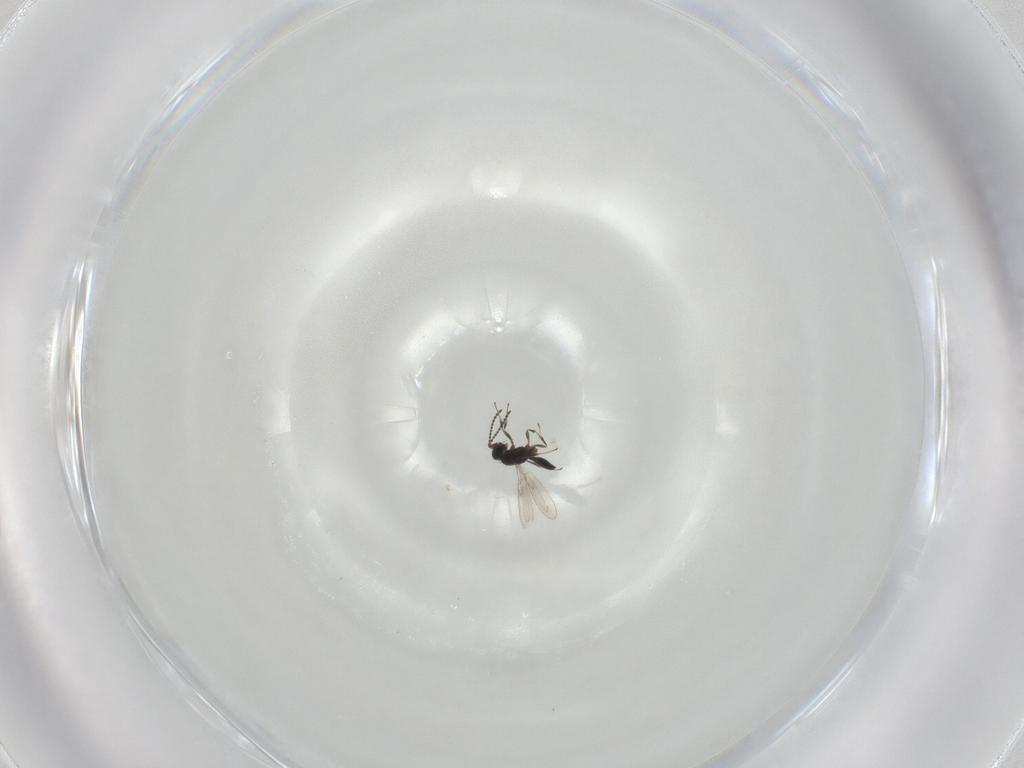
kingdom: Animalia
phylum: Arthropoda
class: Insecta
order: Hymenoptera
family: Scelionidae
